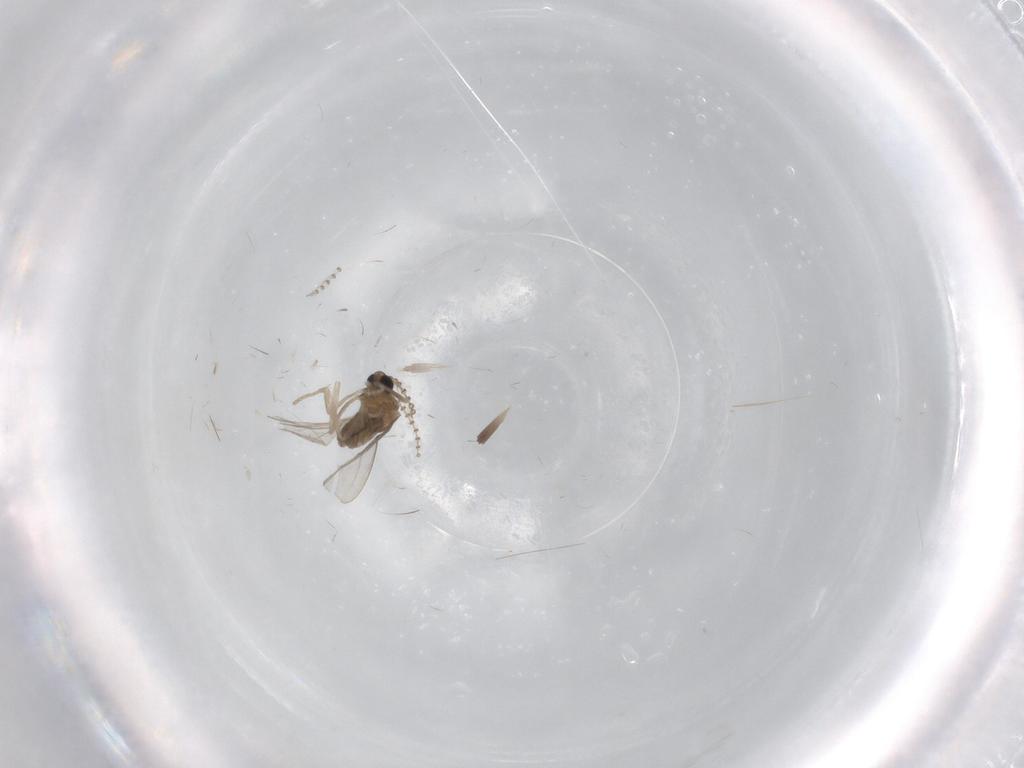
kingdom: Animalia
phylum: Arthropoda
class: Insecta
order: Diptera
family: Cecidomyiidae
